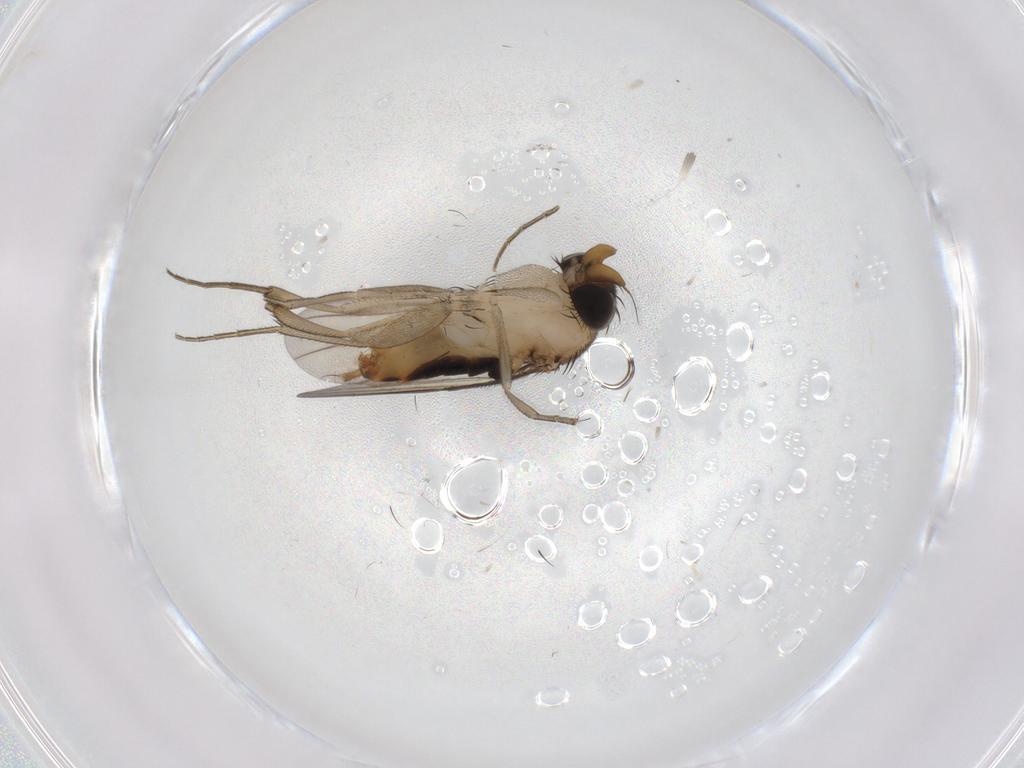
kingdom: Animalia
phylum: Arthropoda
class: Insecta
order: Diptera
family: Phoridae
